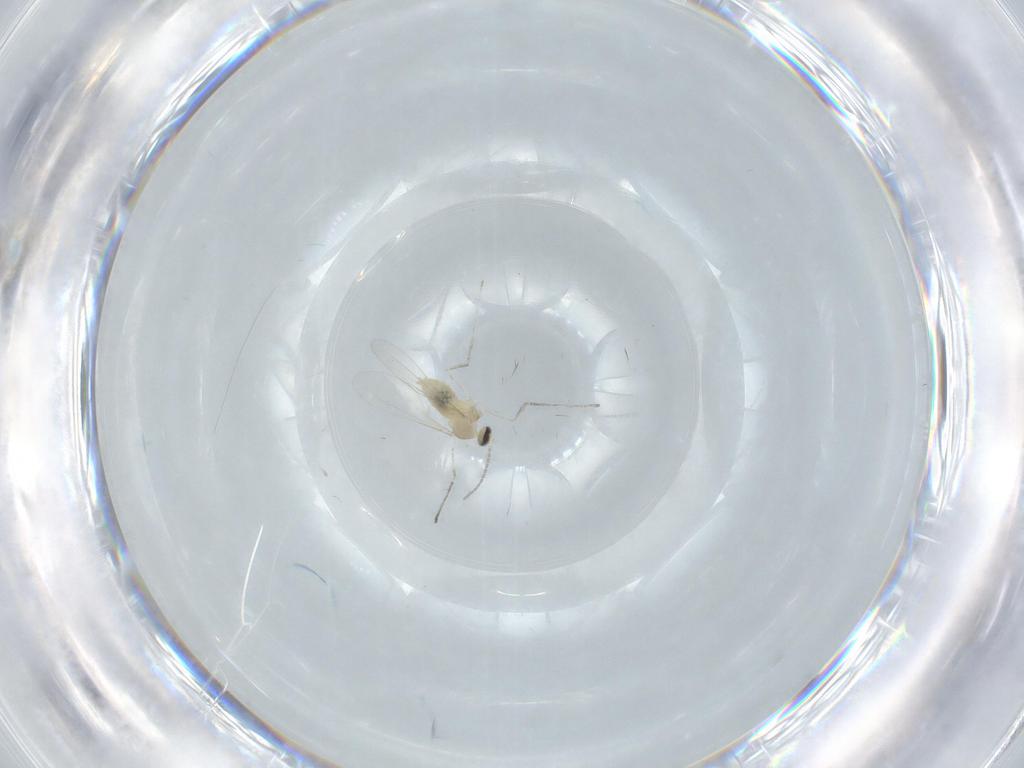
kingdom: Animalia
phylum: Arthropoda
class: Insecta
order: Diptera
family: Cecidomyiidae
